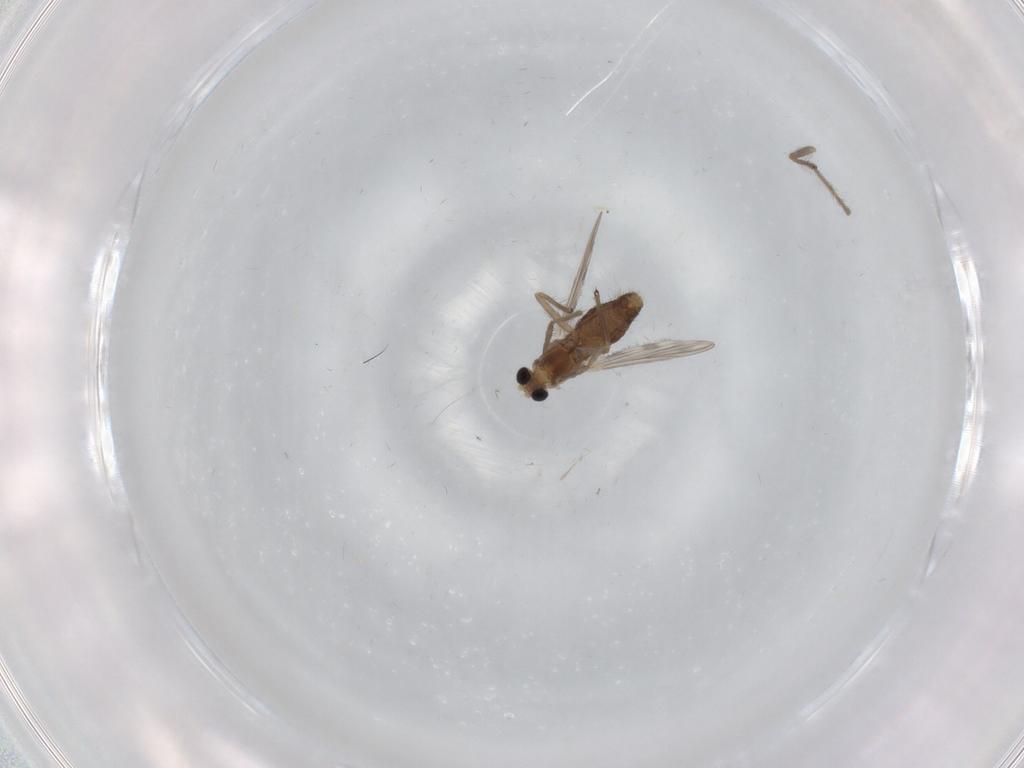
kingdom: Animalia
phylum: Arthropoda
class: Insecta
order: Diptera
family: Chironomidae
